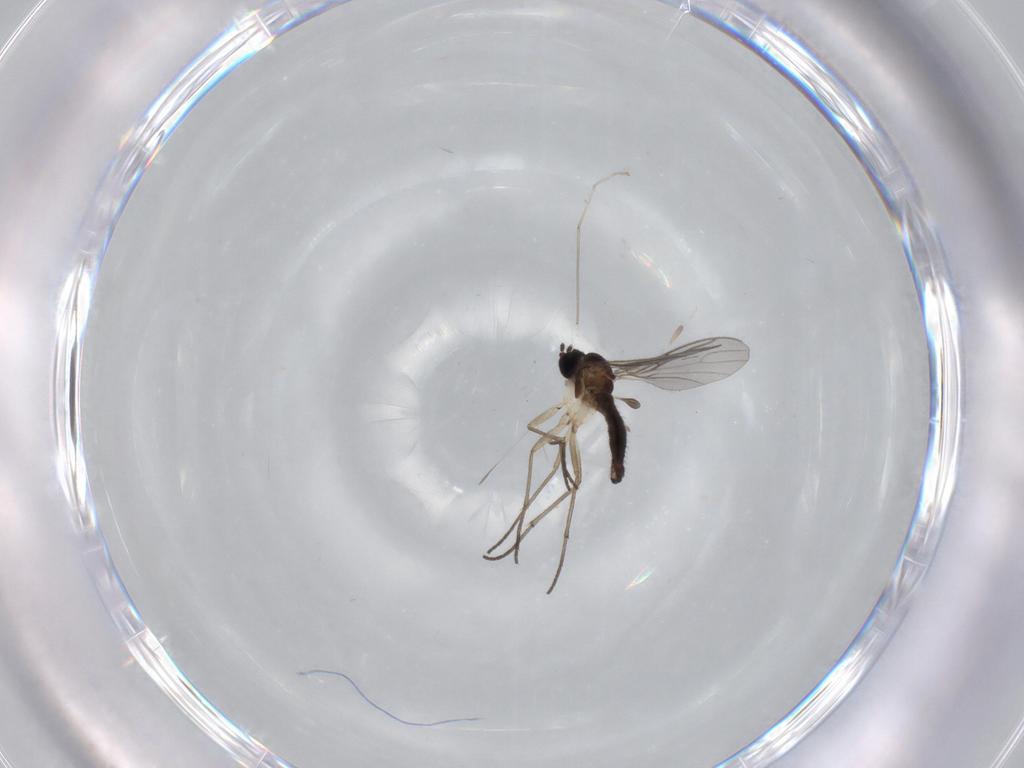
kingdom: Animalia
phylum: Arthropoda
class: Insecta
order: Diptera
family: Sciaridae
